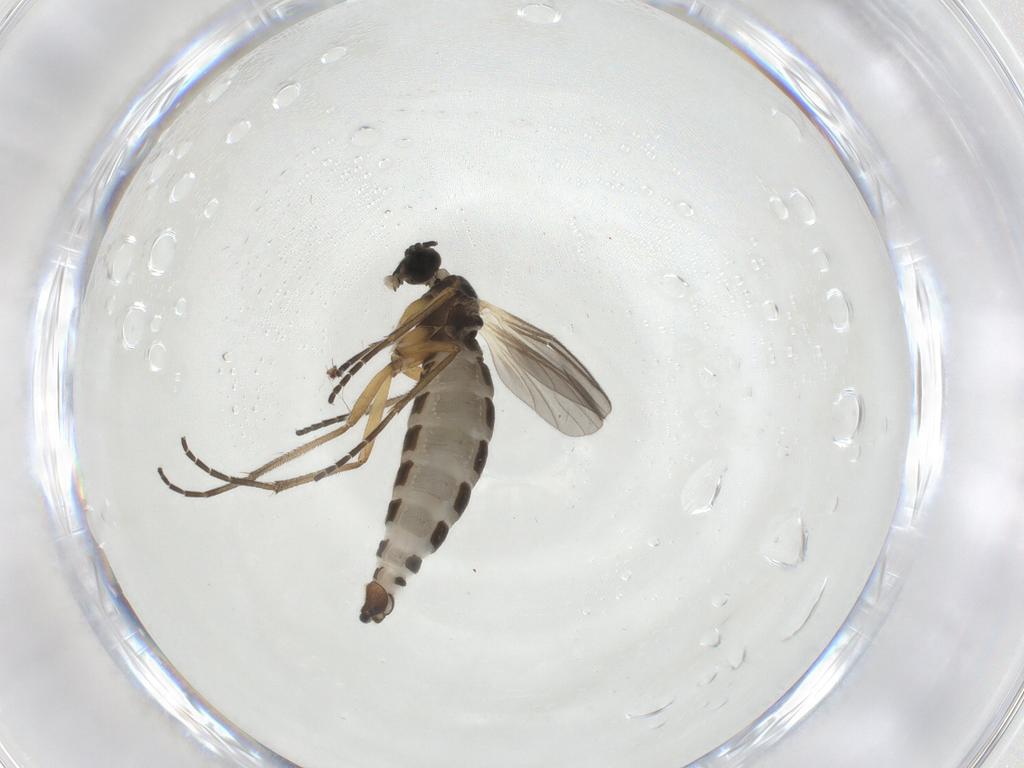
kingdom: Animalia
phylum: Arthropoda
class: Insecta
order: Diptera
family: Sciaridae
